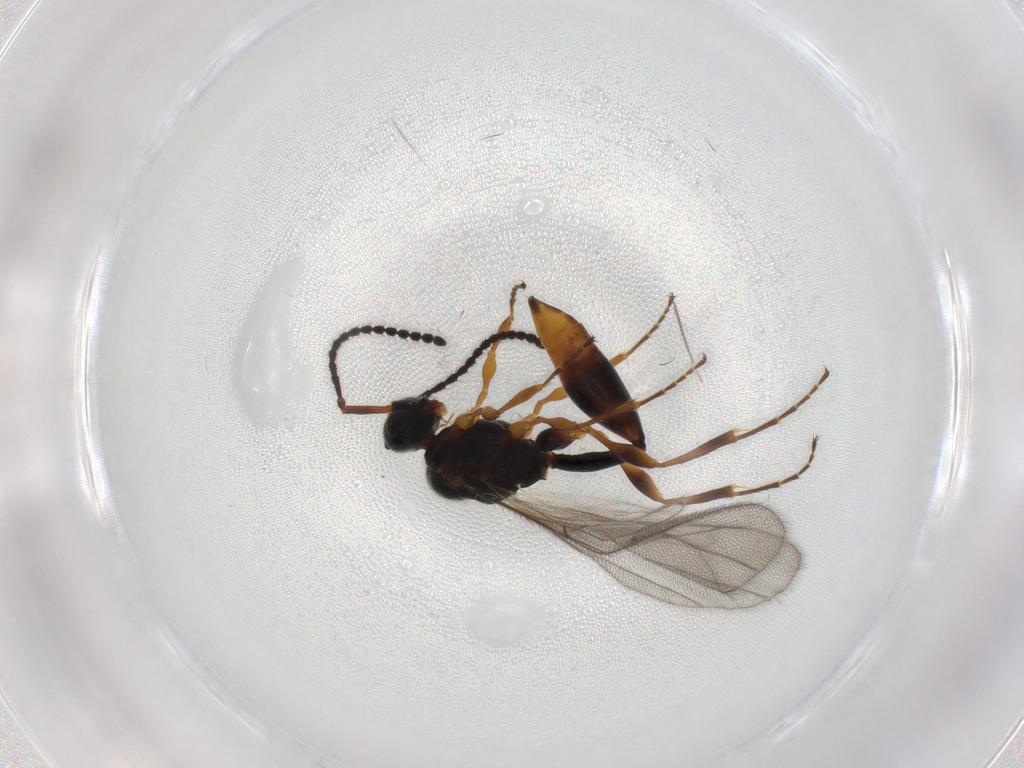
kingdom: Animalia
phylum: Arthropoda
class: Insecta
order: Hymenoptera
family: Diapriidae
